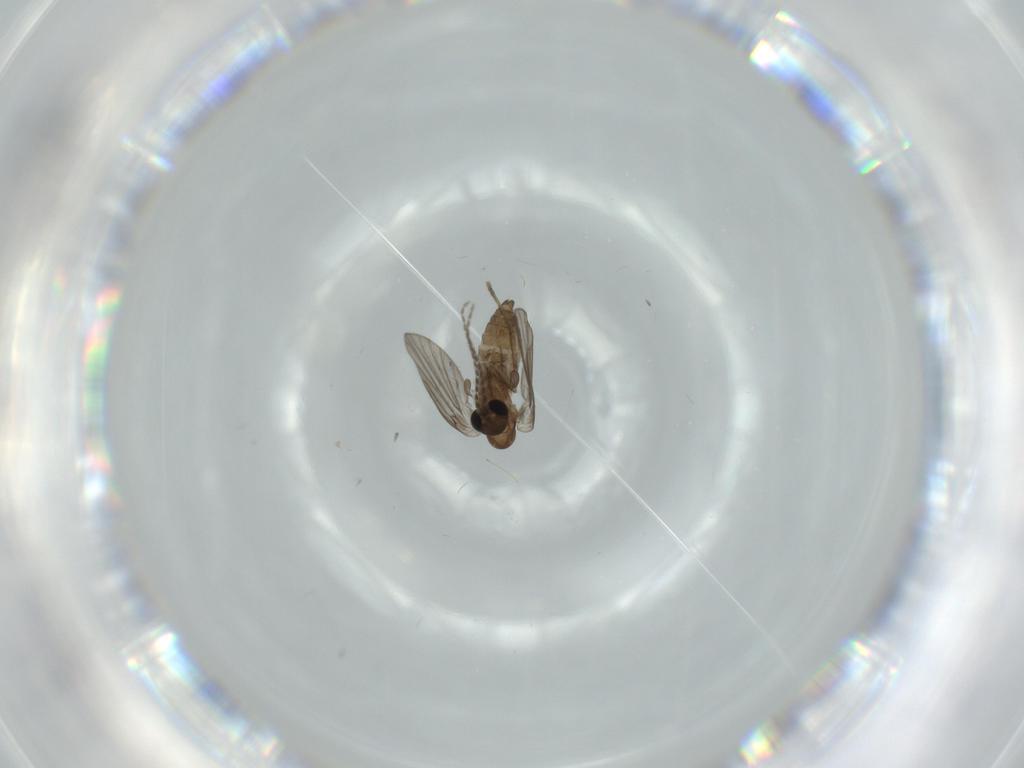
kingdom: Animalia
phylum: Arthropoda
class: Insecta
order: Diptera
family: Psychodidae
